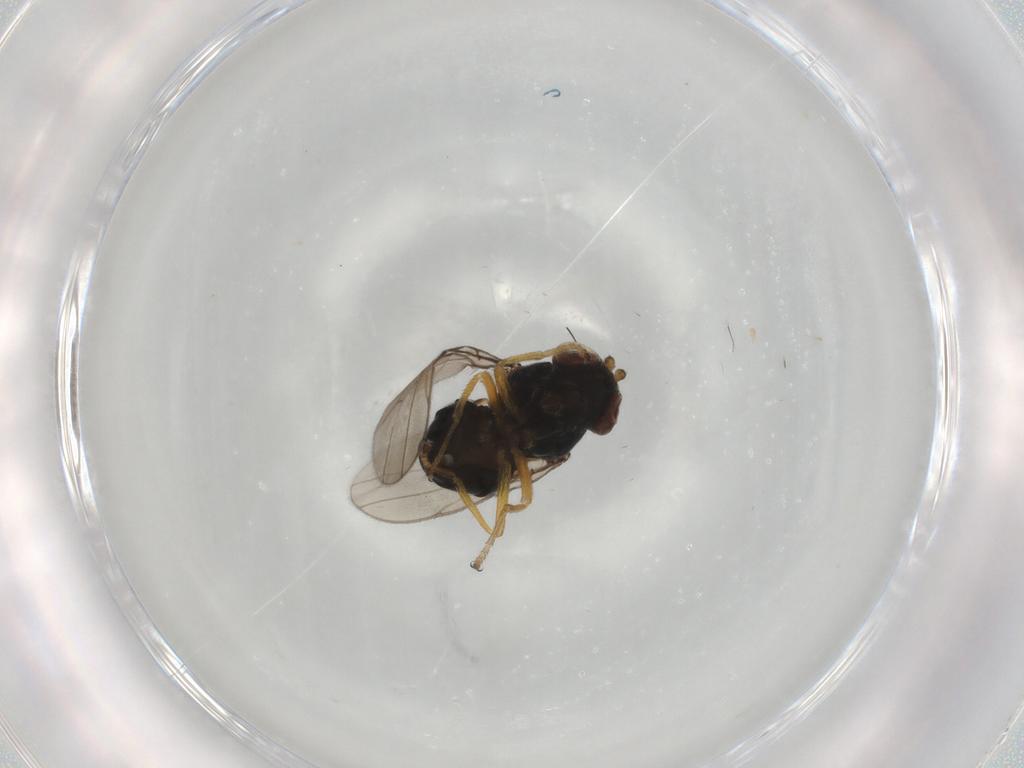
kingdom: Animalia
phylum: Arthropoda
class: Insecta
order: Diptera
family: Ephydridae
